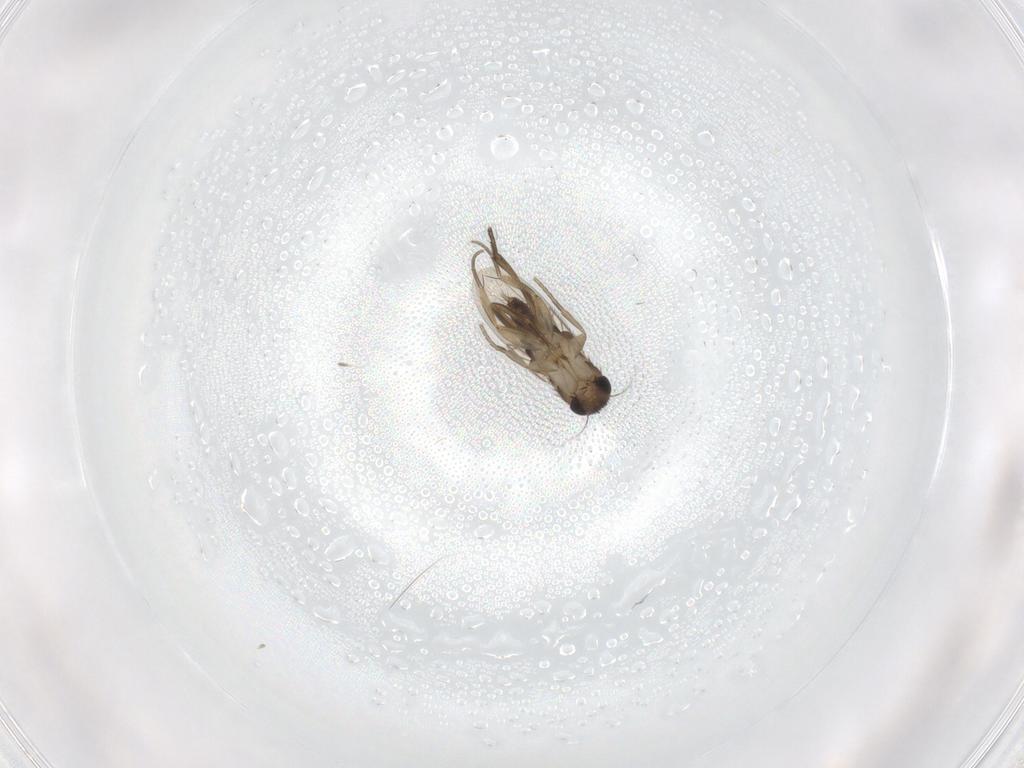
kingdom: Animalia
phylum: Arthropoda
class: Insecta
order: Diptera
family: Phoridae
